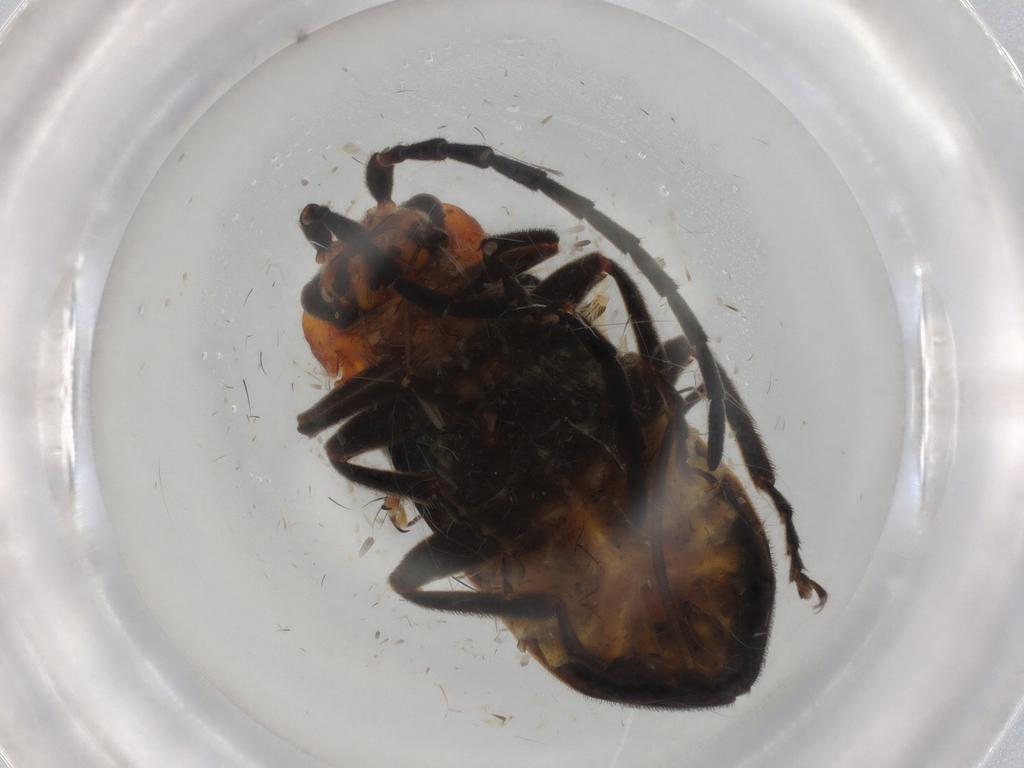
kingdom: Animalia
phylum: Arthropoda
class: Insecta
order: Coleoptera
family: Cantharidae
